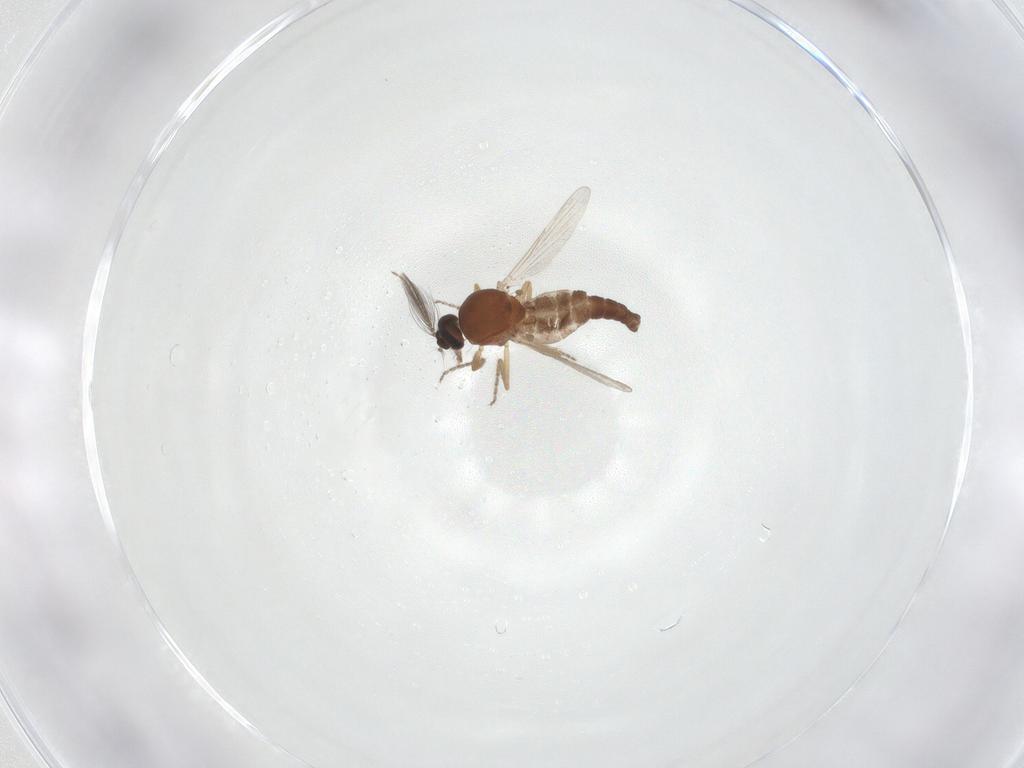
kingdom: Animalia
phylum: Arthropoda
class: Insecta
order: Diptera
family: Ceratopogonidae
